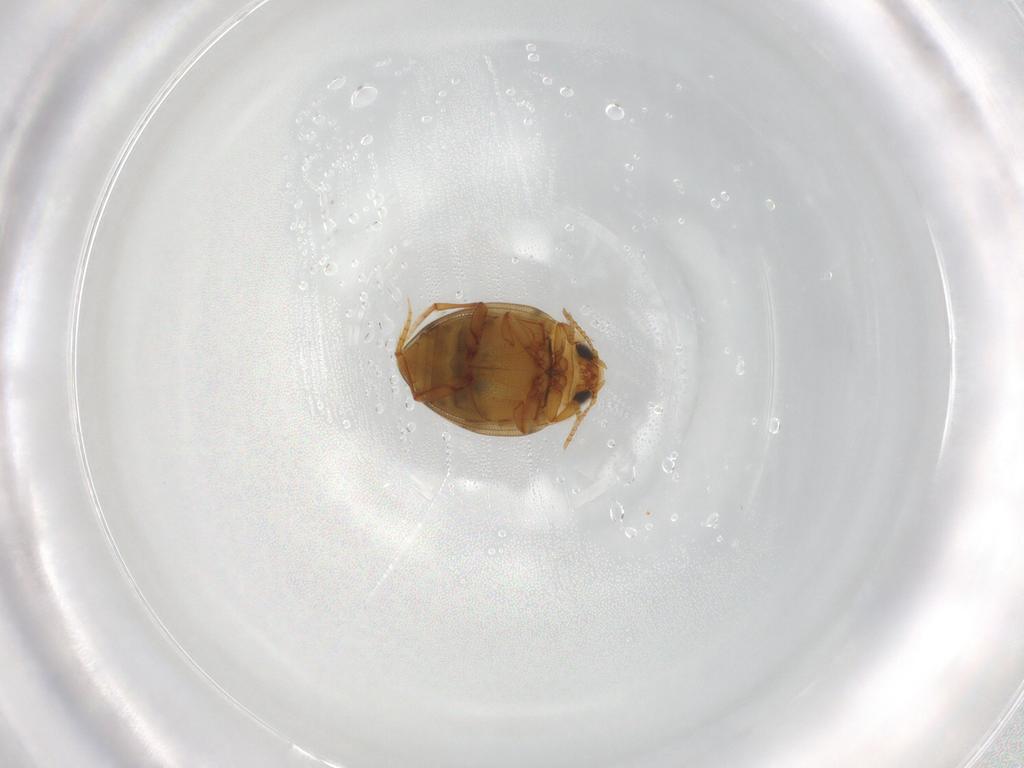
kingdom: Animalia
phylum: Arthropoda
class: Insecta
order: Coleoptera
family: Dytiscidae
